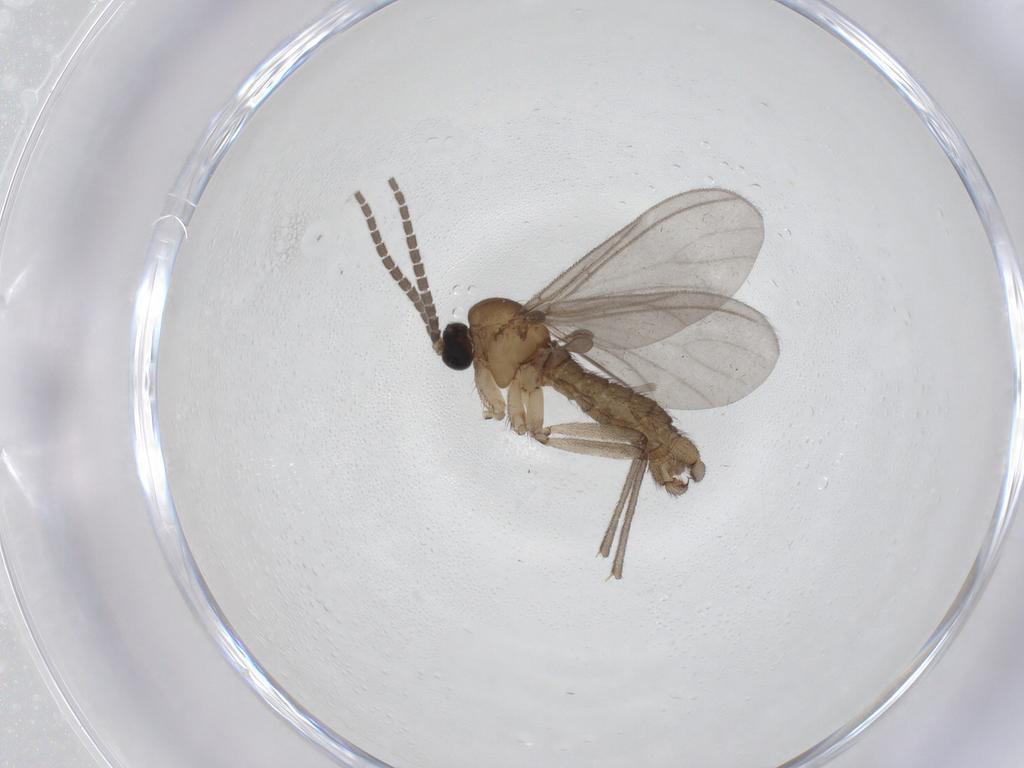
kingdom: Animalia
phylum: Arthropoda
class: Insecta
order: Diptera
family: Sciaridae
